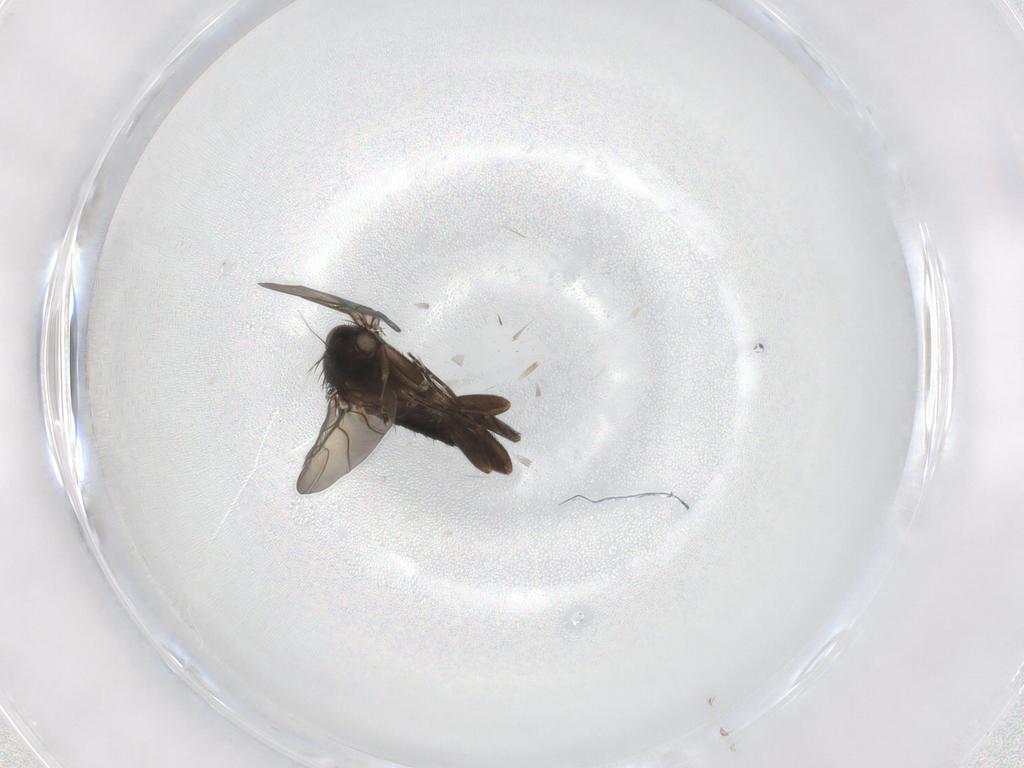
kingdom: Animalia
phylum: Arthropoda
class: Insecta
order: Diptera
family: Phoridae
